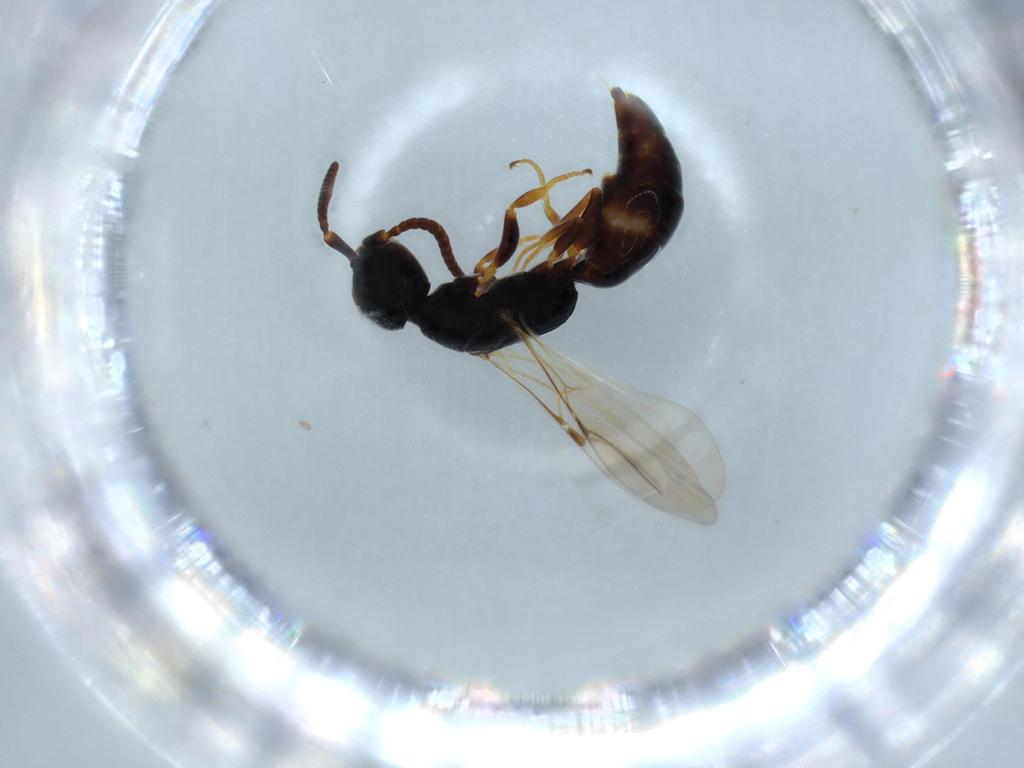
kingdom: Animalia
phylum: Arthropoda
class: Insecta
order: Hymenoptera
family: Bethylidae
